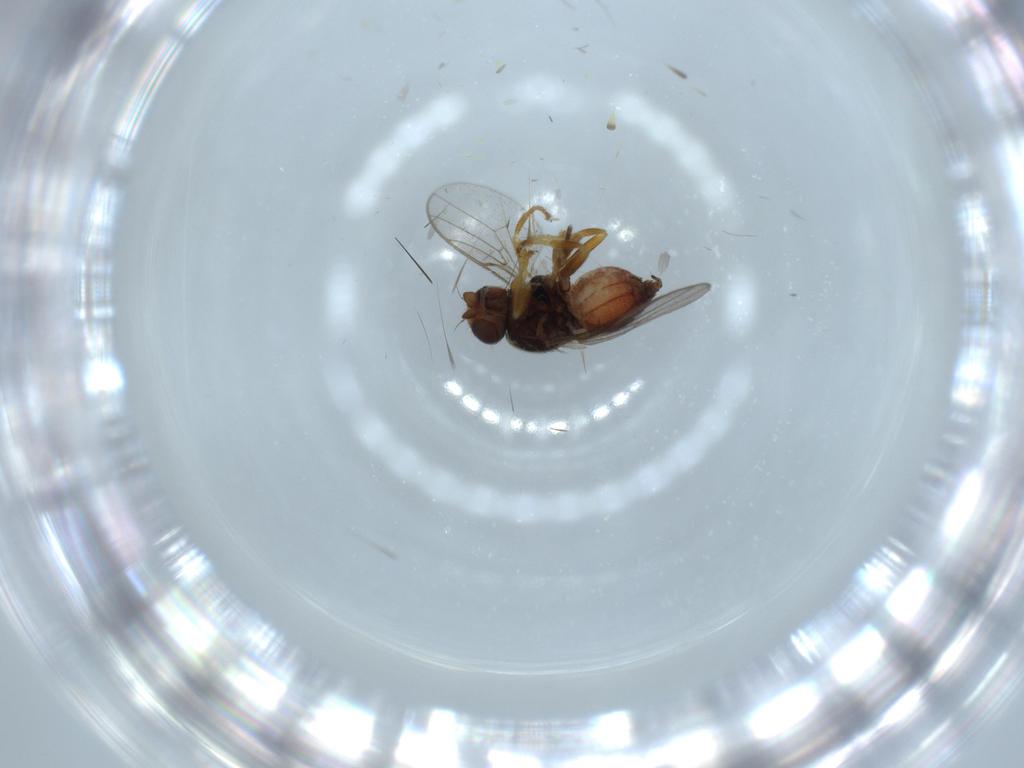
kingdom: Animalia
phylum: Arthropoda
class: Insecta
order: Diptera
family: Chloropidae
